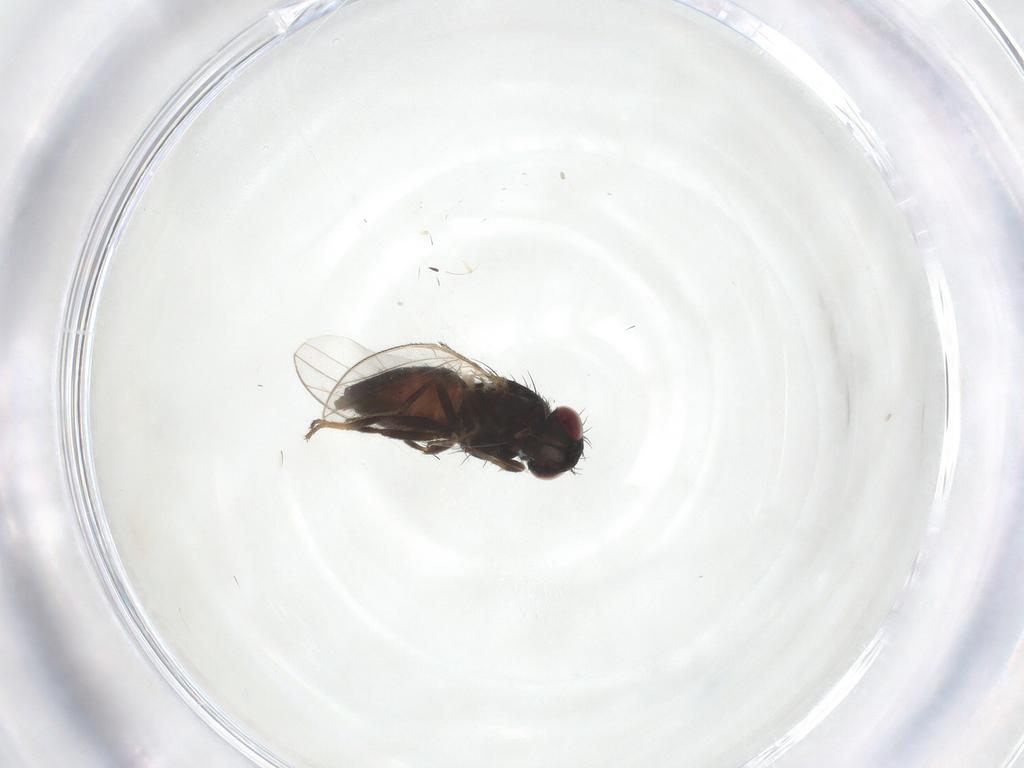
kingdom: Animalia
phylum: Arthropoda
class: Insecta
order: Diptera
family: Carnidae
